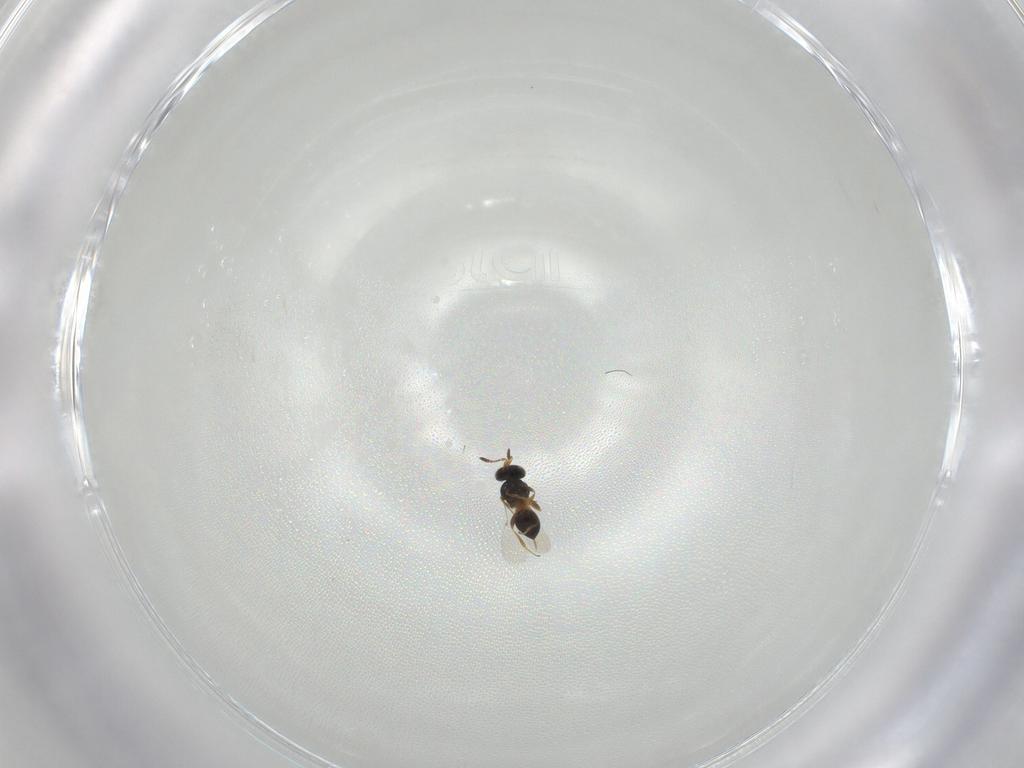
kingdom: Animalia
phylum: Arthropoda
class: Insecta
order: Hymenoptera
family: Platygastridae
